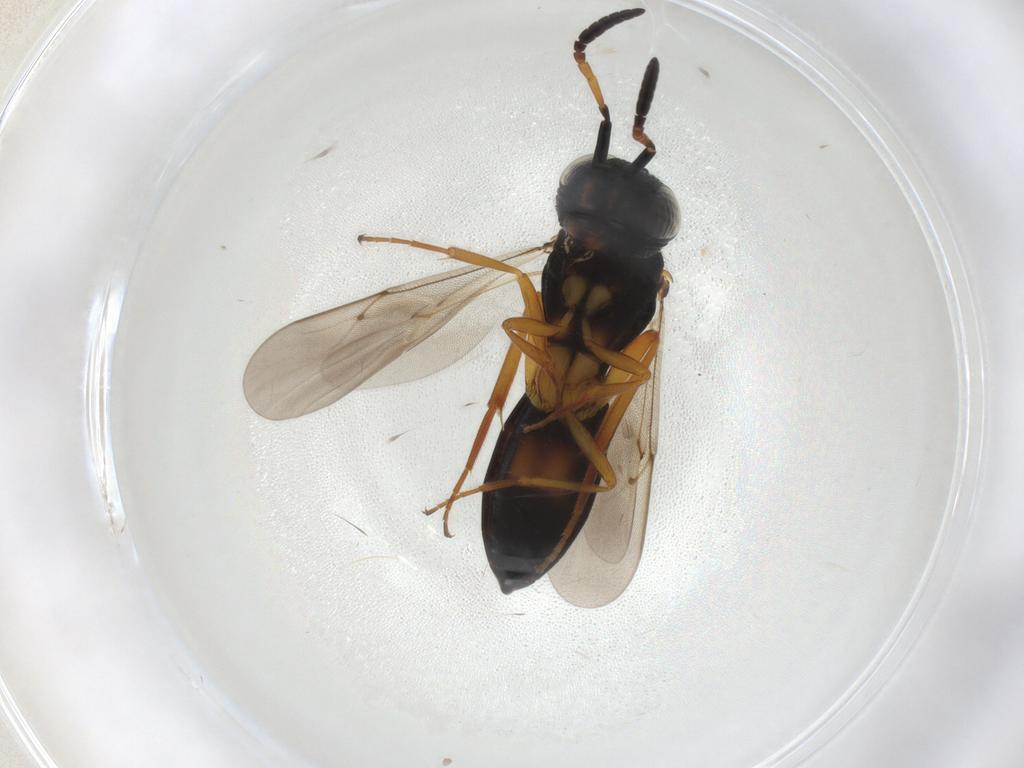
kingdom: Animalia
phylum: Arthropoda
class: Insecta
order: Hymenoptera
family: Scelionidae
